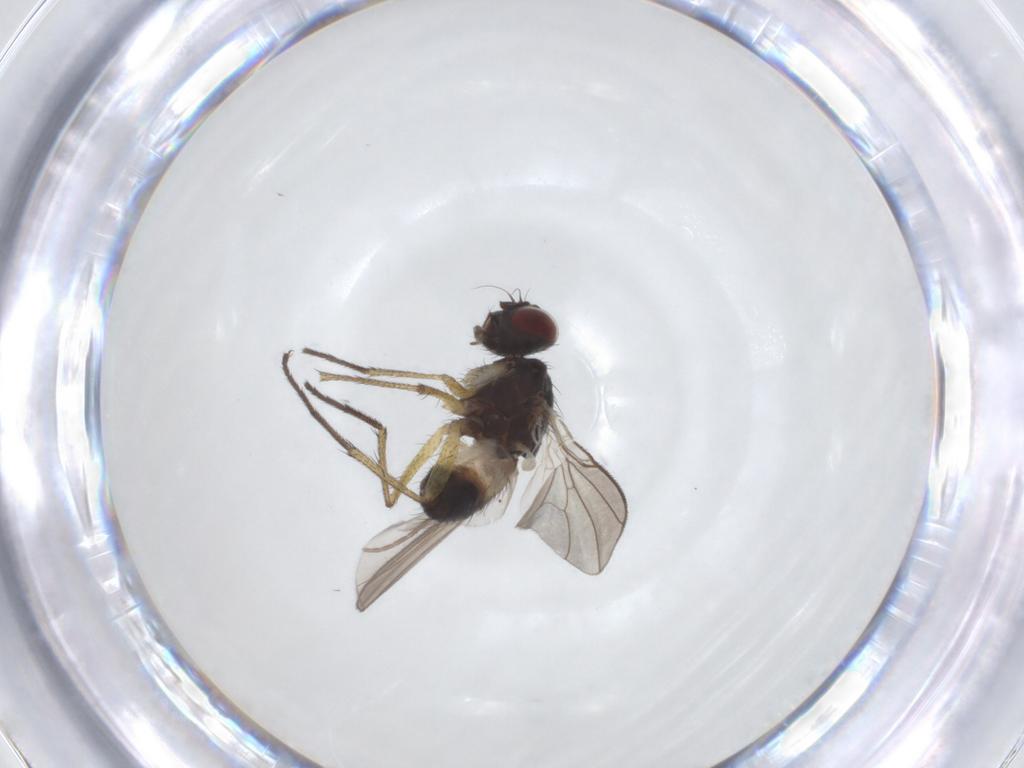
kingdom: Animalia
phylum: Arthropoda
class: Insecta
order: Diptera
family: Muscidae
